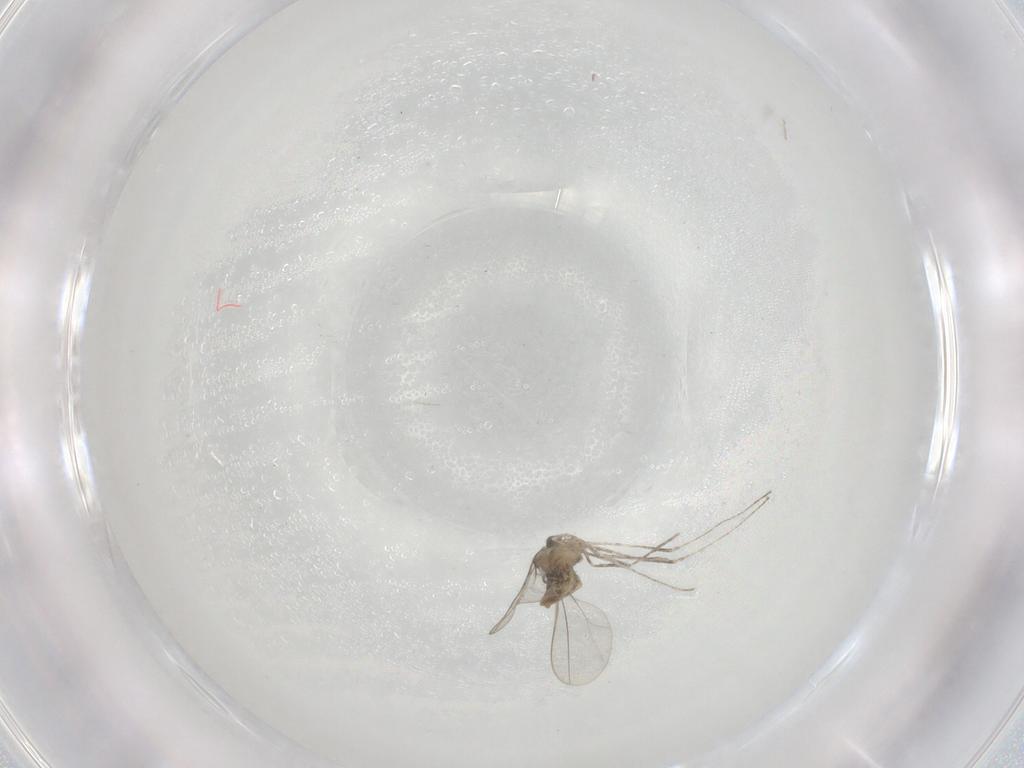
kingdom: Animalia
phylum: Arthropoda
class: Insecta
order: Diptera
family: Cecidomyiidae
